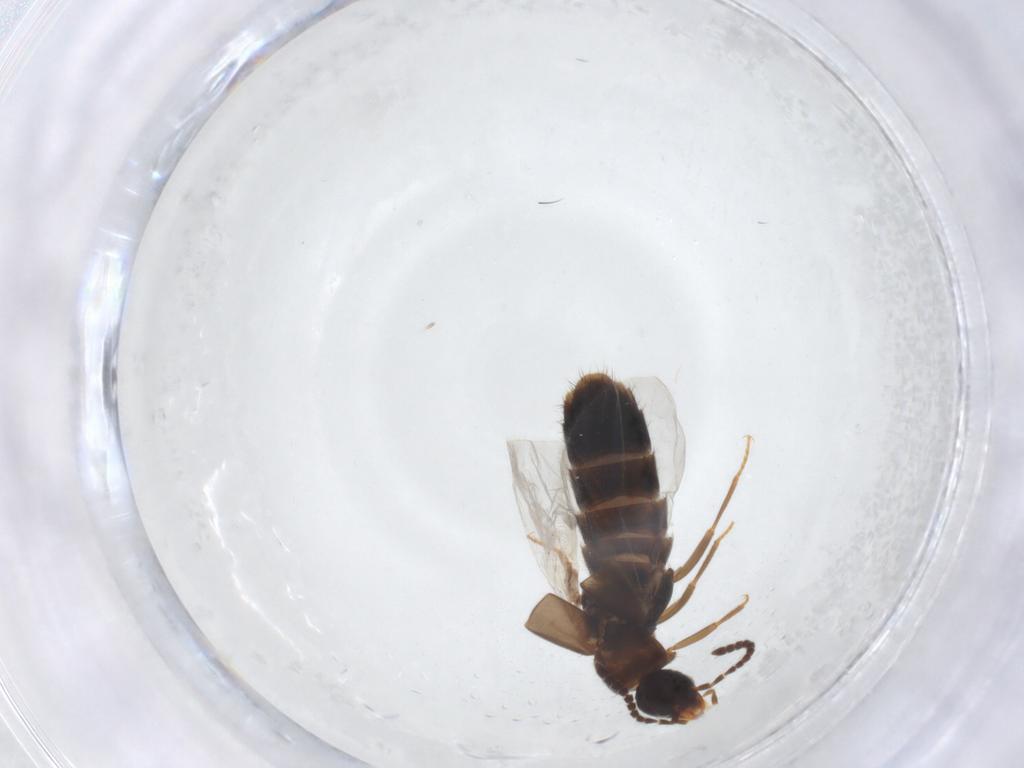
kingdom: Animalia
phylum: Arthropoda
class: Insecta
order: Coleoptera
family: Staphylinidae
